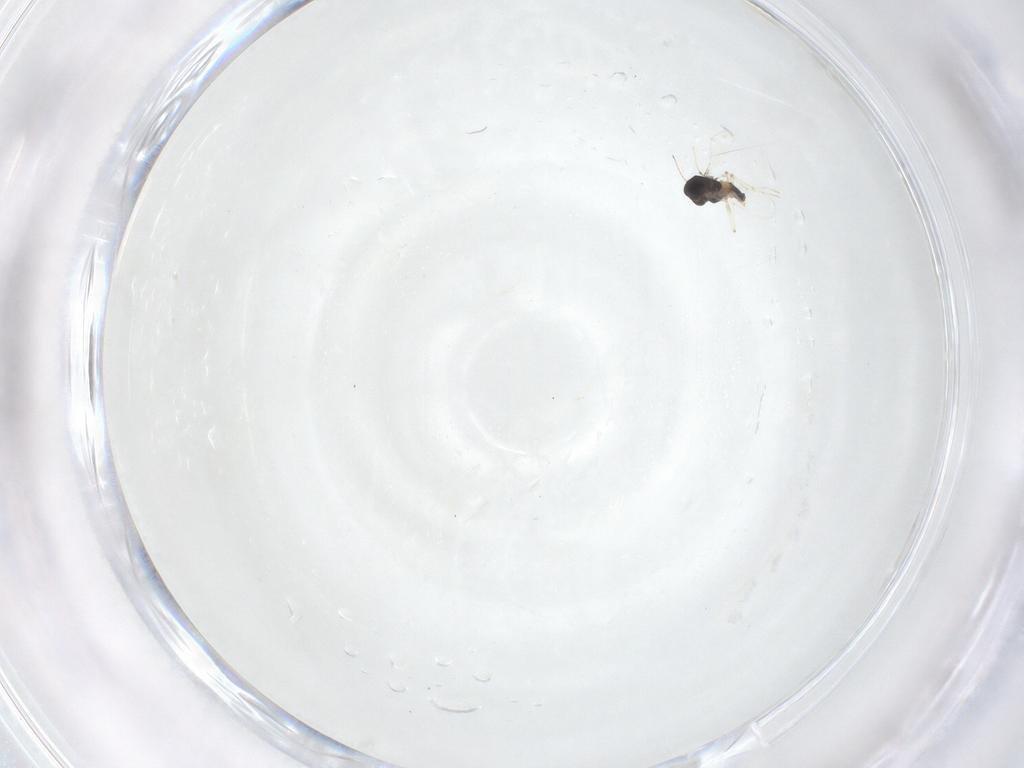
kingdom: Animalia
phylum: Arthropoda
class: Insecta
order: Diptera
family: Chironomidae
